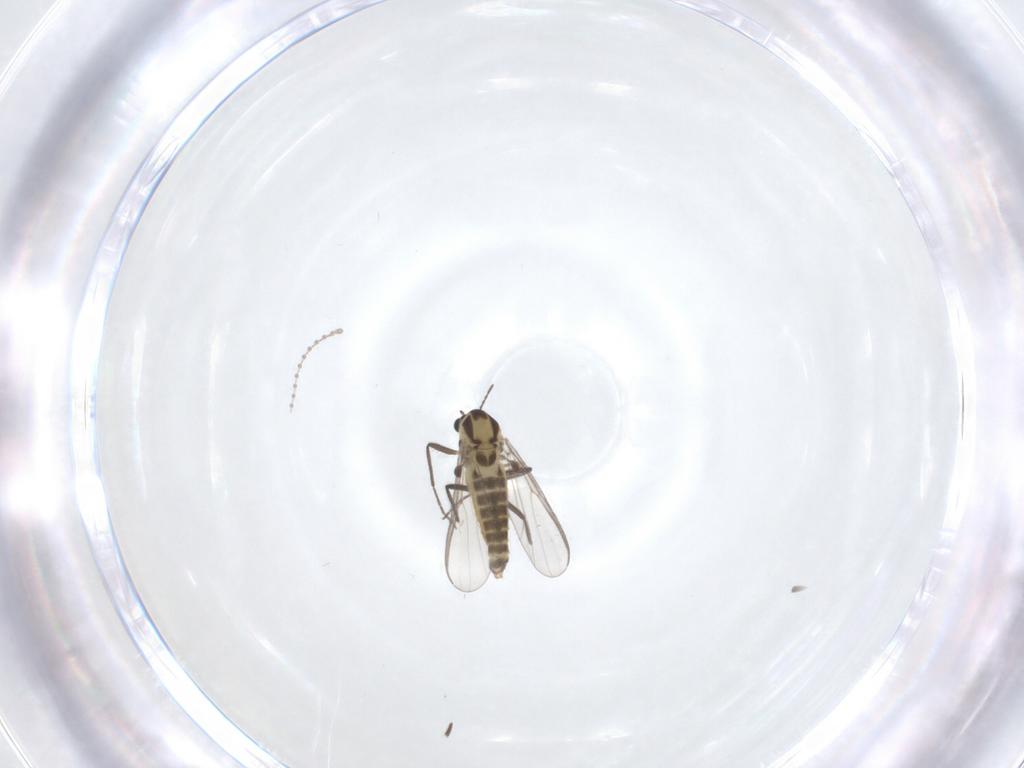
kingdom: Animalia
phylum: Arthropoda
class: Insecta
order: Diptera
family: Chironomidae
